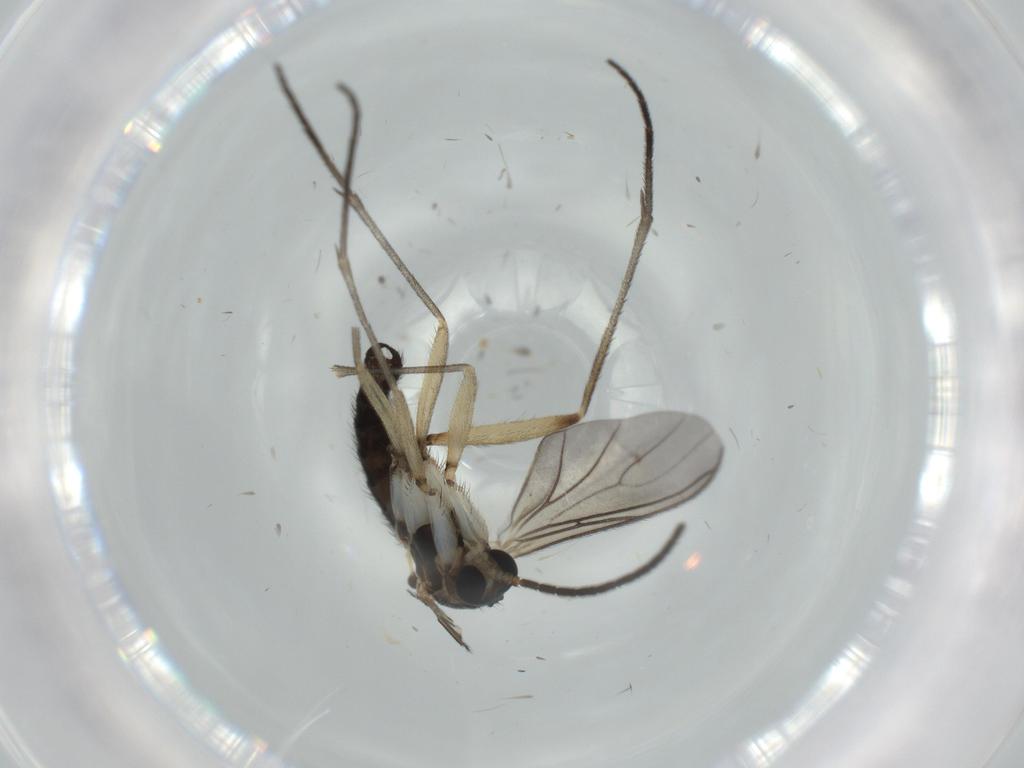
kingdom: Animalia
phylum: Arthropoda
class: Insecta
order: Diptera
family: Sciaridae
